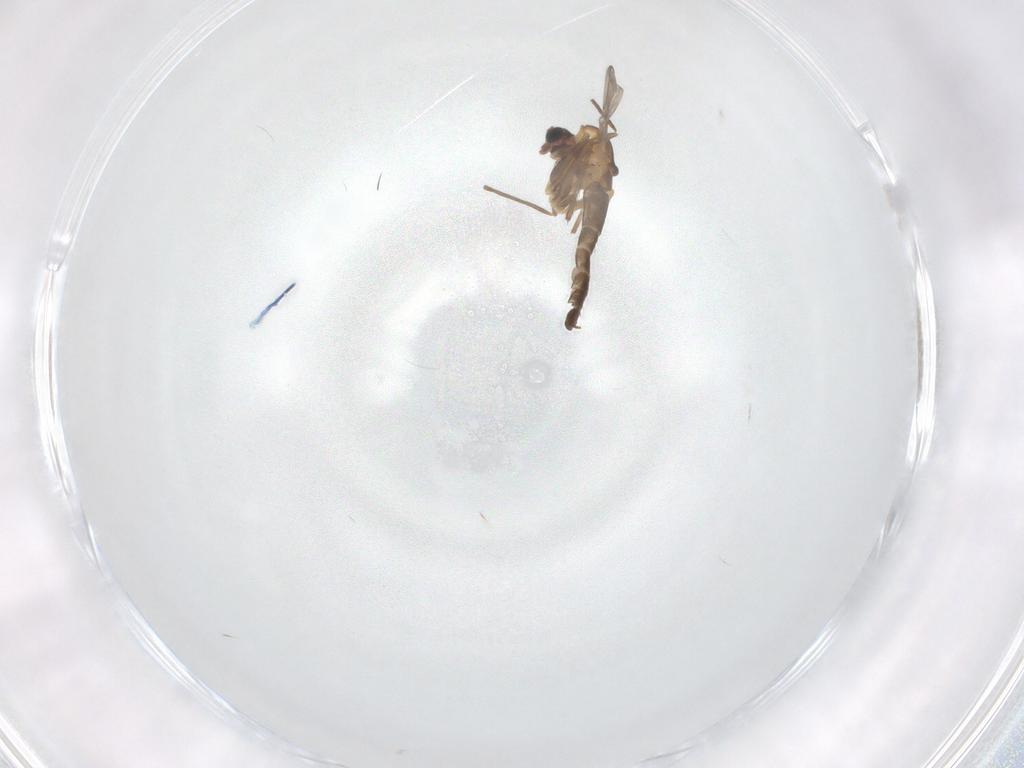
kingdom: Animalia
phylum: Arthropoda
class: Insecta
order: Diptera
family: Chironomidae
